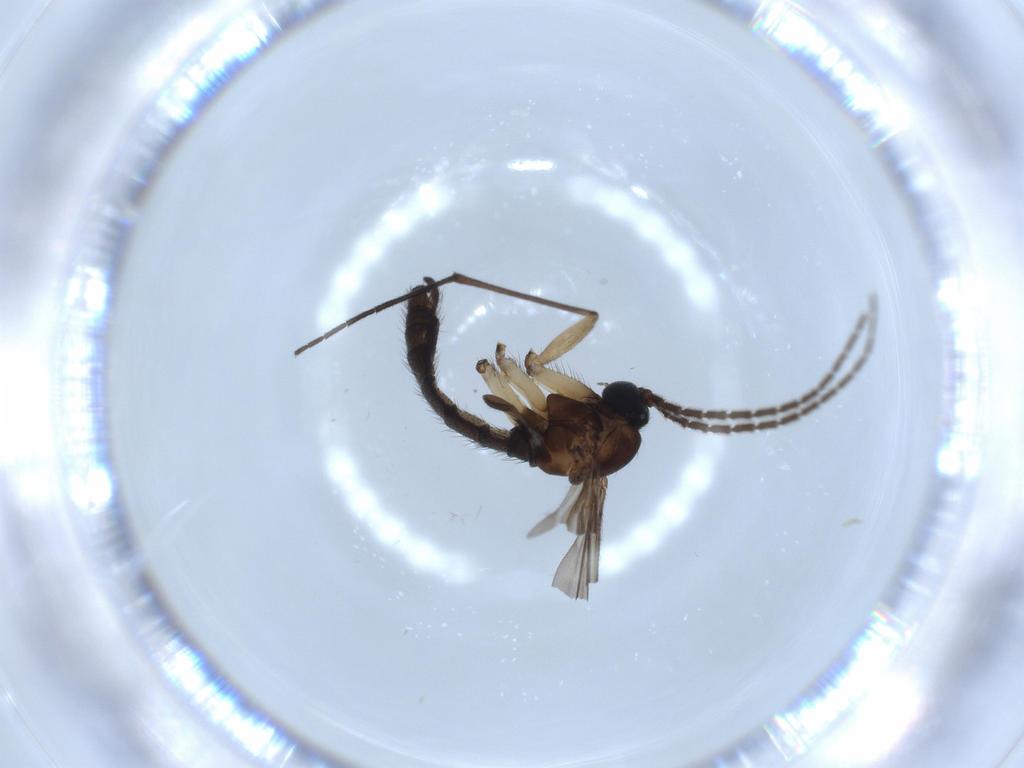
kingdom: Animalia
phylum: Arthropoda
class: Insecta
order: Diptera
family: Sciaridae
